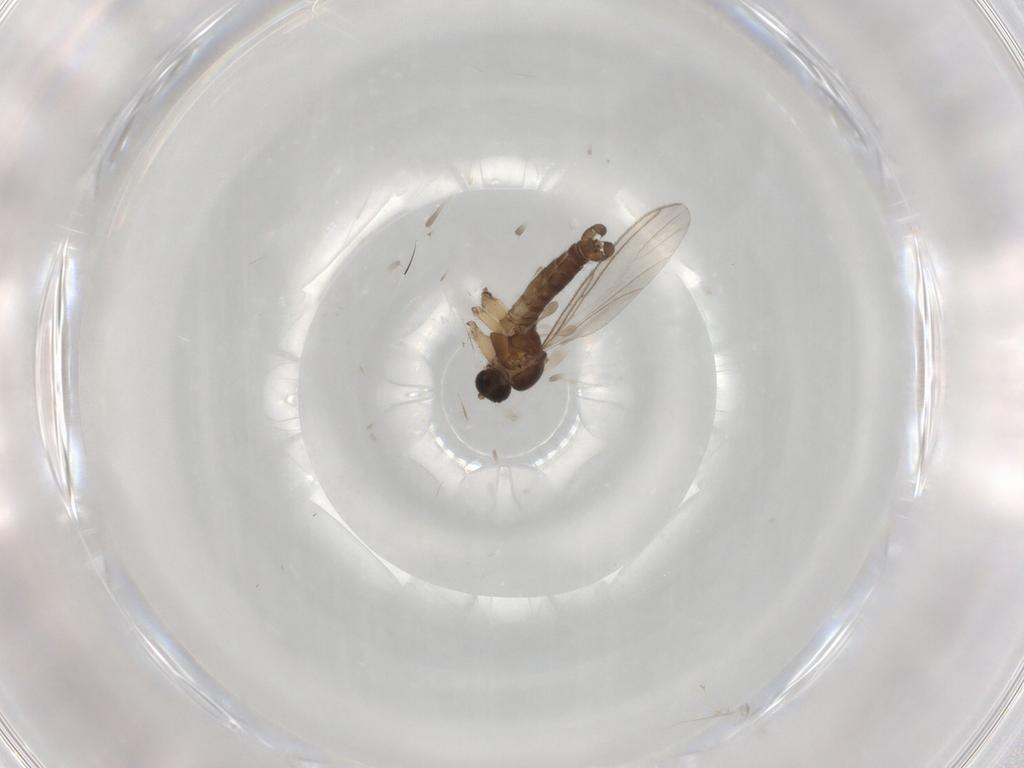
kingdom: Animalia
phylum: Arthropoda
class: Insecta
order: Diptera
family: Sciaridae
